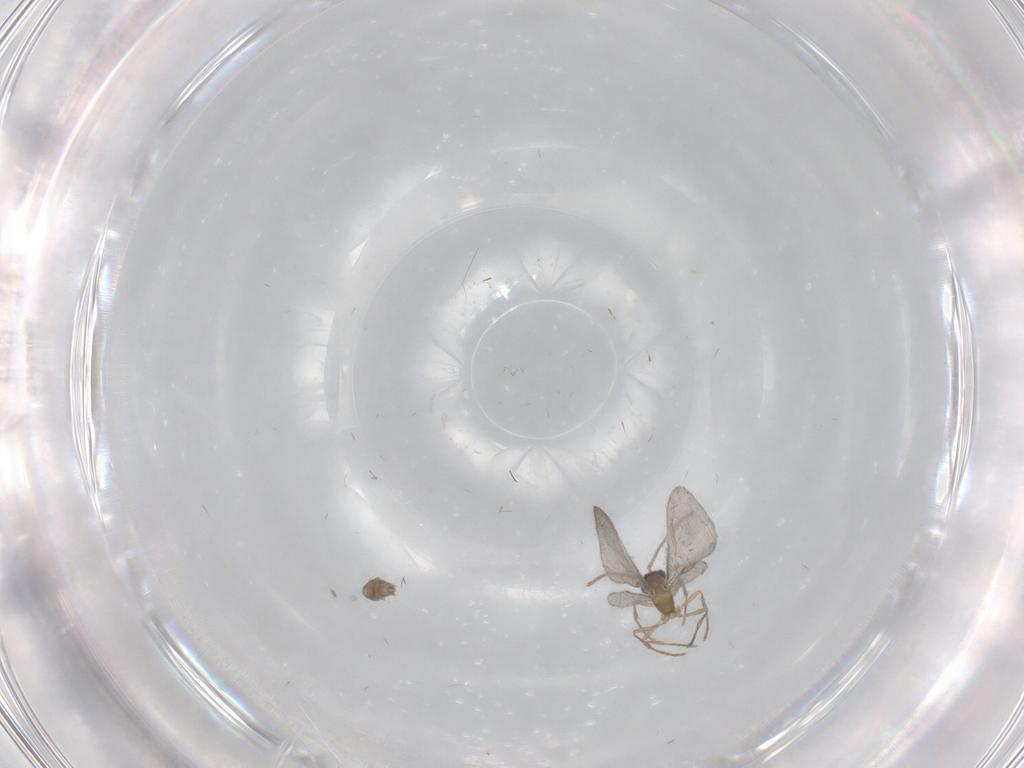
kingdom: Animalia
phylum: Arthropoda
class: Insecta
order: Hymenoptera
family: Formicidae
